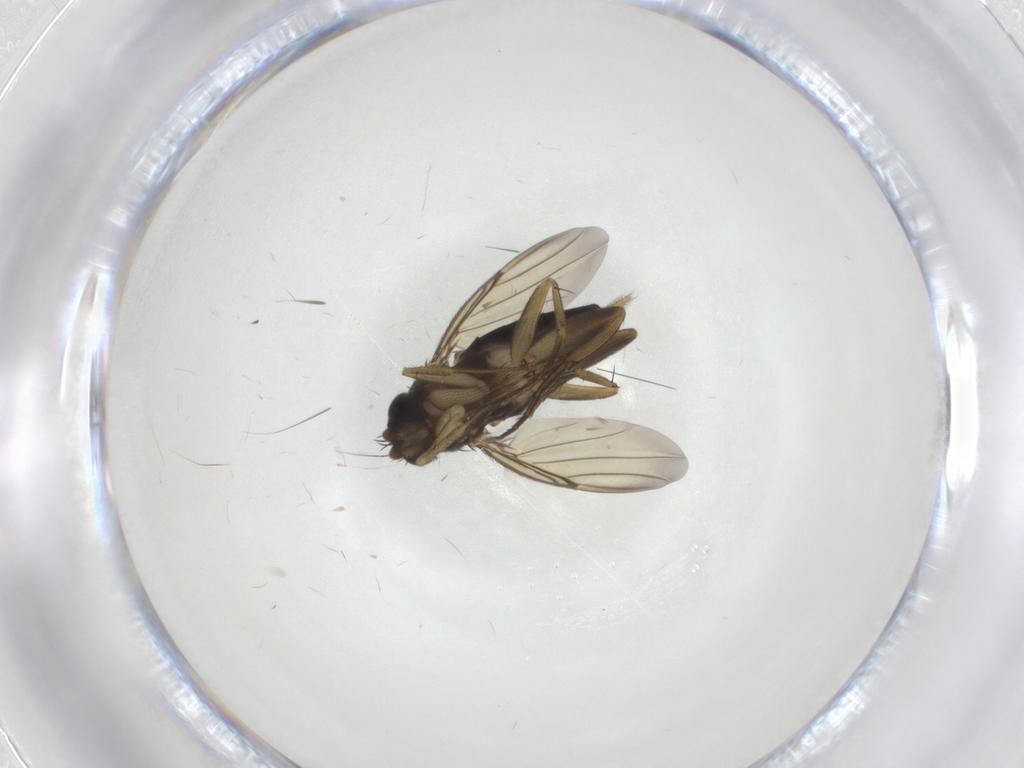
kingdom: Animalia
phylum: Arthropoda
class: Insecta
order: Diptera
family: Phoridae
